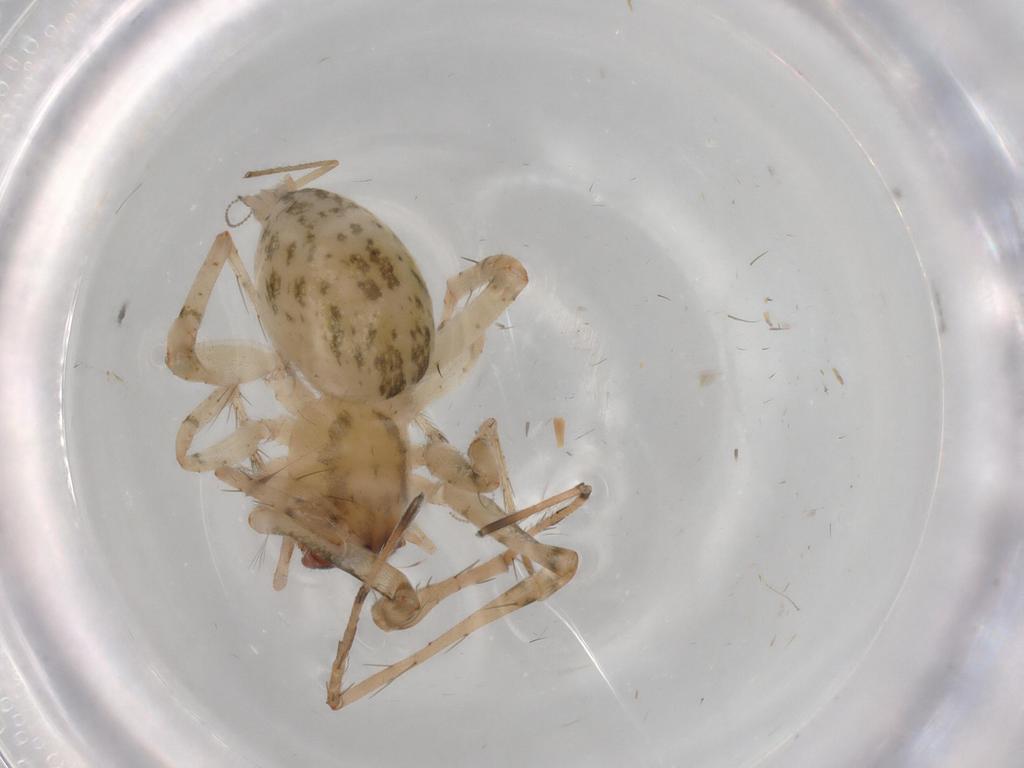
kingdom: Animalia
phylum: Arthropoda
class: Arachnida
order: Araneae
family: Anyphaenidae
